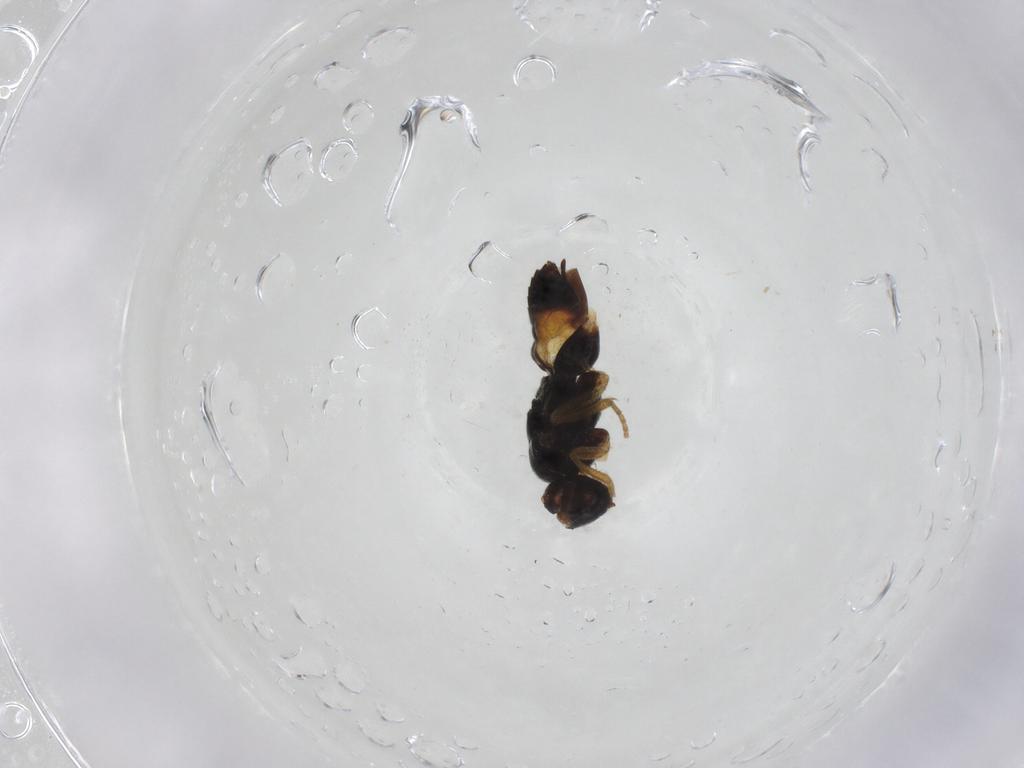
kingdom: Animalia
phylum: Arthropoda
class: Insecta
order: Hymenoptera
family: Braconidae
